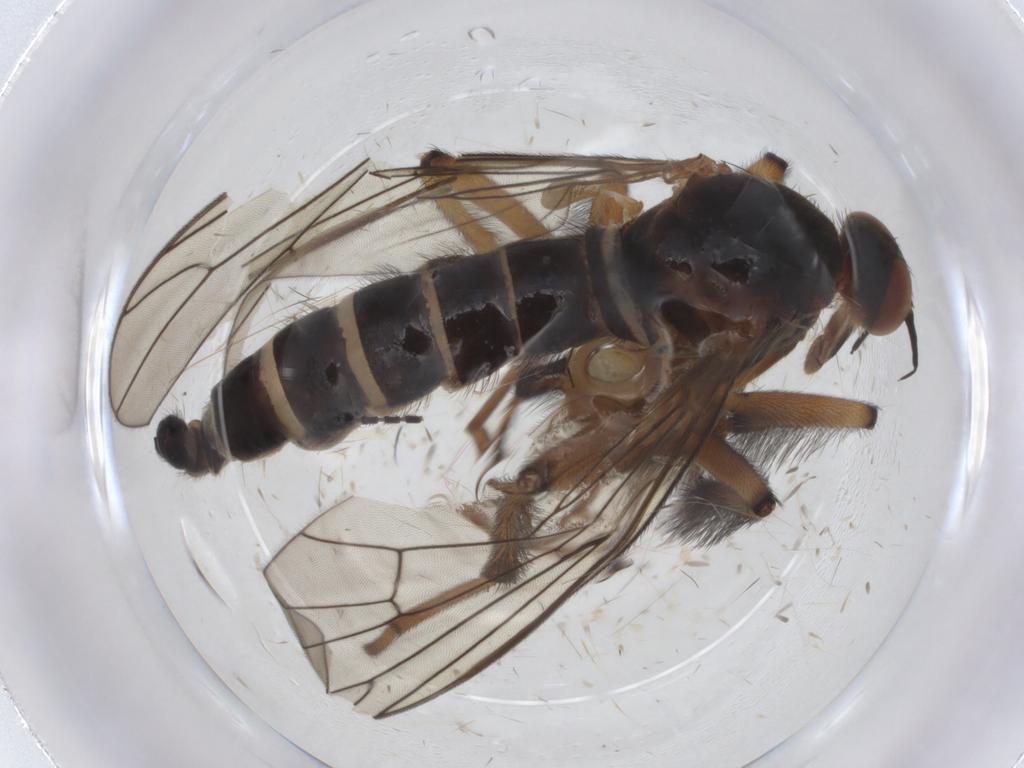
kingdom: Animalia
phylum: Arthropoda
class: Insecta
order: Diptera
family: Empididae
